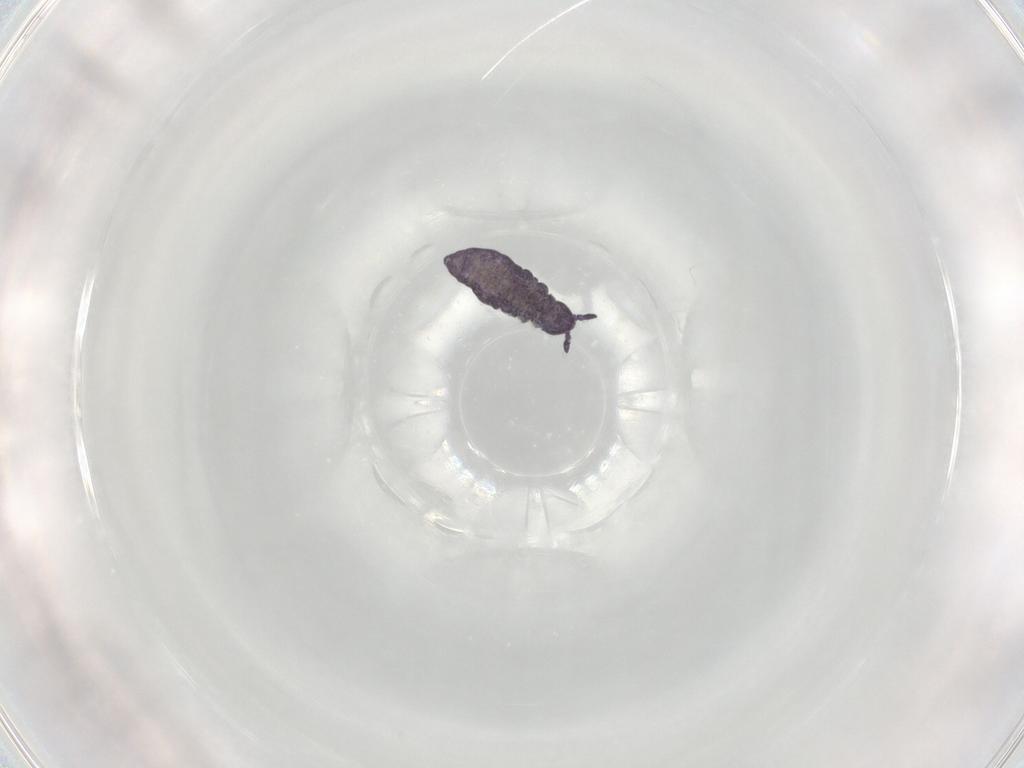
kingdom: Animalia
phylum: Arthropoda
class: Collembola
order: Poduromorpha
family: Brachystomellidae
